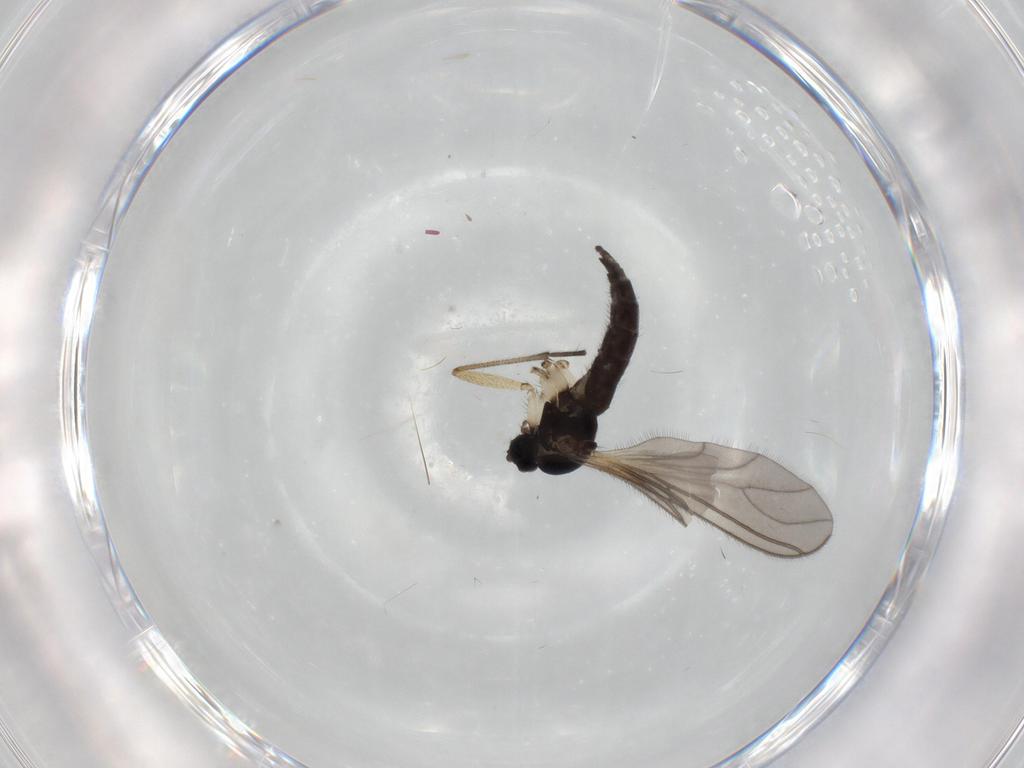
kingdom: Animalia
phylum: Arthropoda
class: Insecta
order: Diptera
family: Sciaridae
